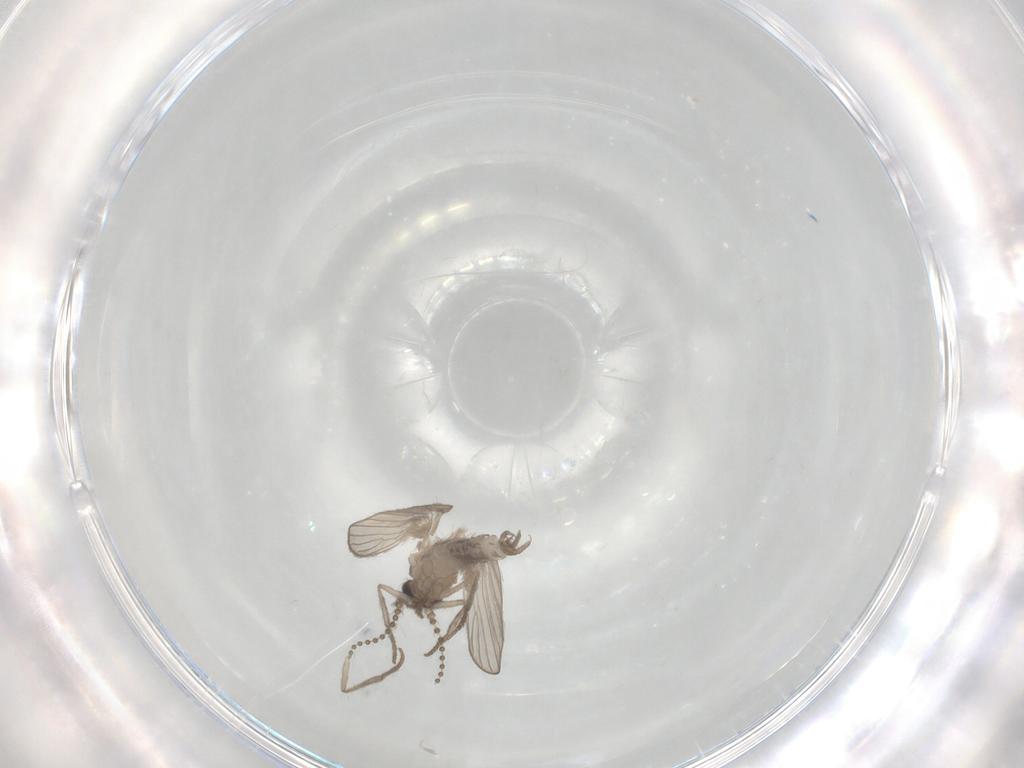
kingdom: Animalia
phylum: Arthropoda
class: Insecta
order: Diptera
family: Psychodidae
